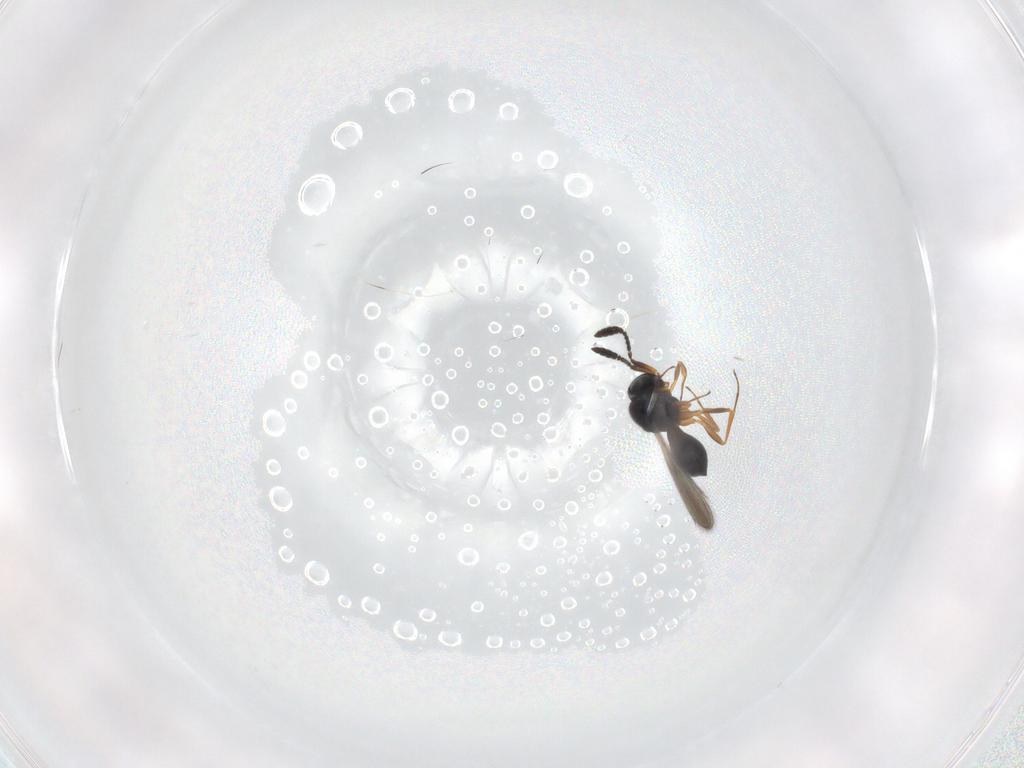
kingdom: Animalia
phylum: Arthropoda
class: Insecta
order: Hymenoptera
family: Scelionidae
